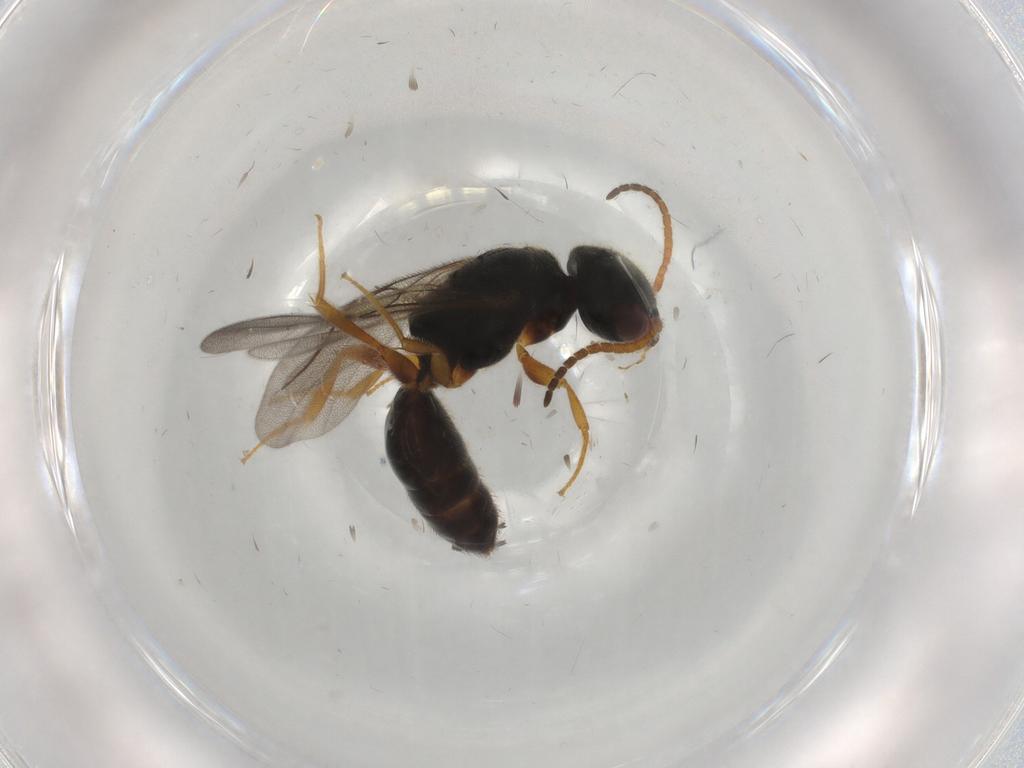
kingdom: Animalia
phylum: Arthropoda
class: Insecta
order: Hymenoptera
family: Bethylidae
